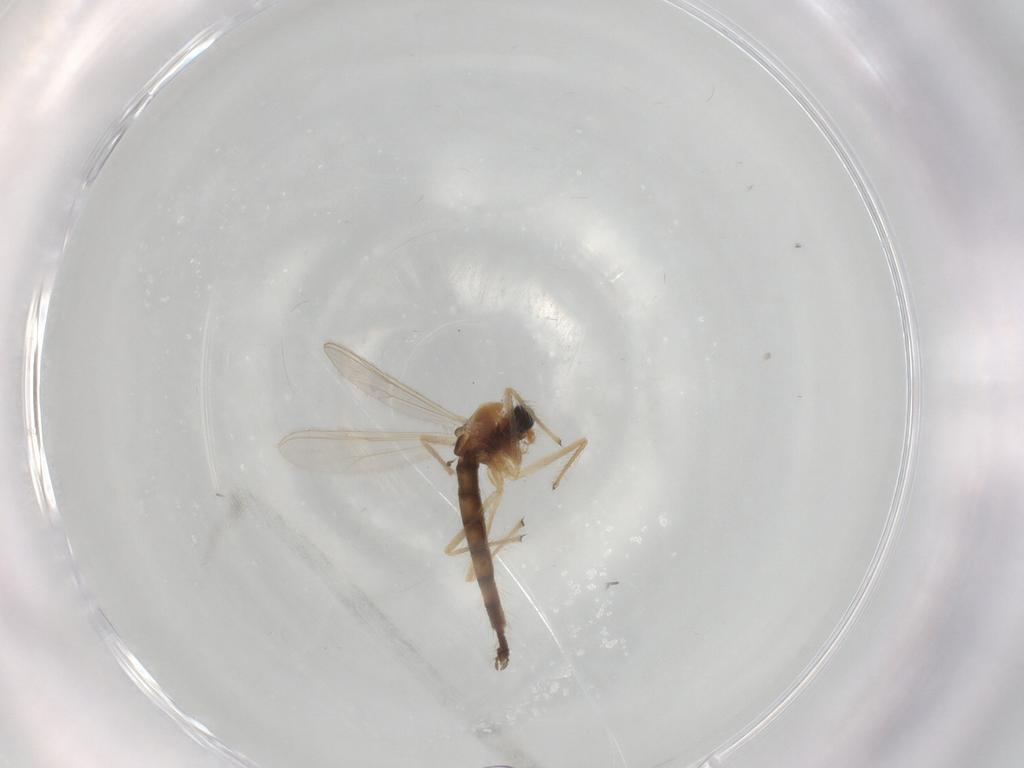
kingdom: Animalia
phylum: Arthropoda
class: Insecta
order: Diptera
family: Chironomidae
